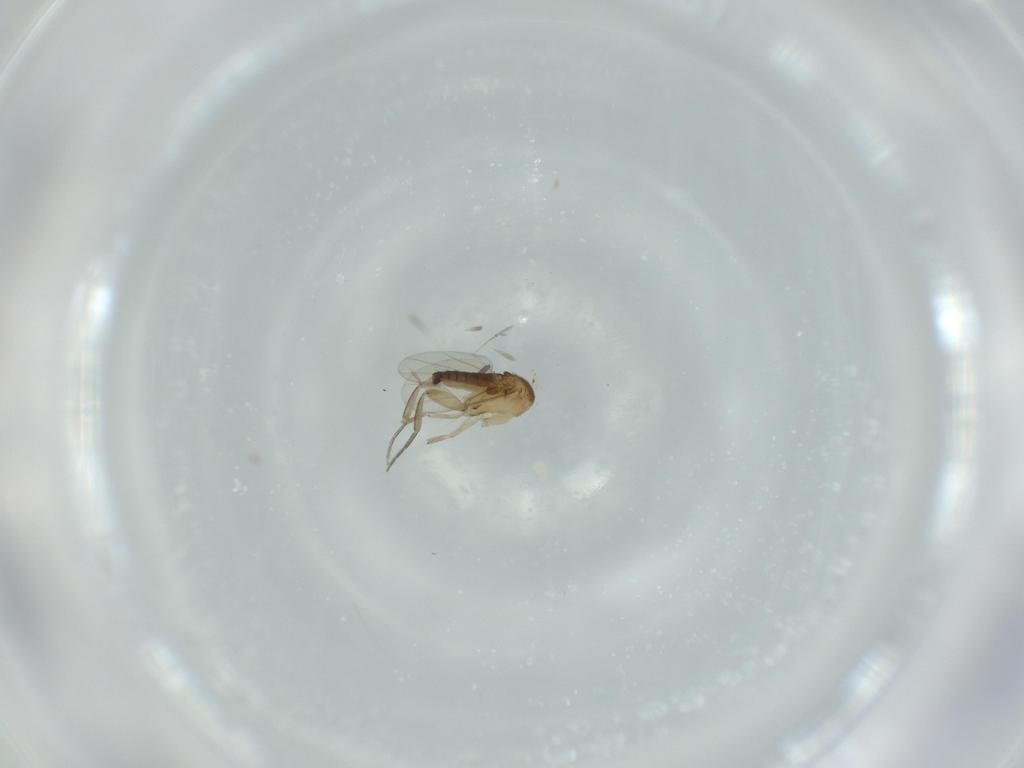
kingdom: Animalia
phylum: Arthropoda
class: Insecta
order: Diptera
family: Phoridae
